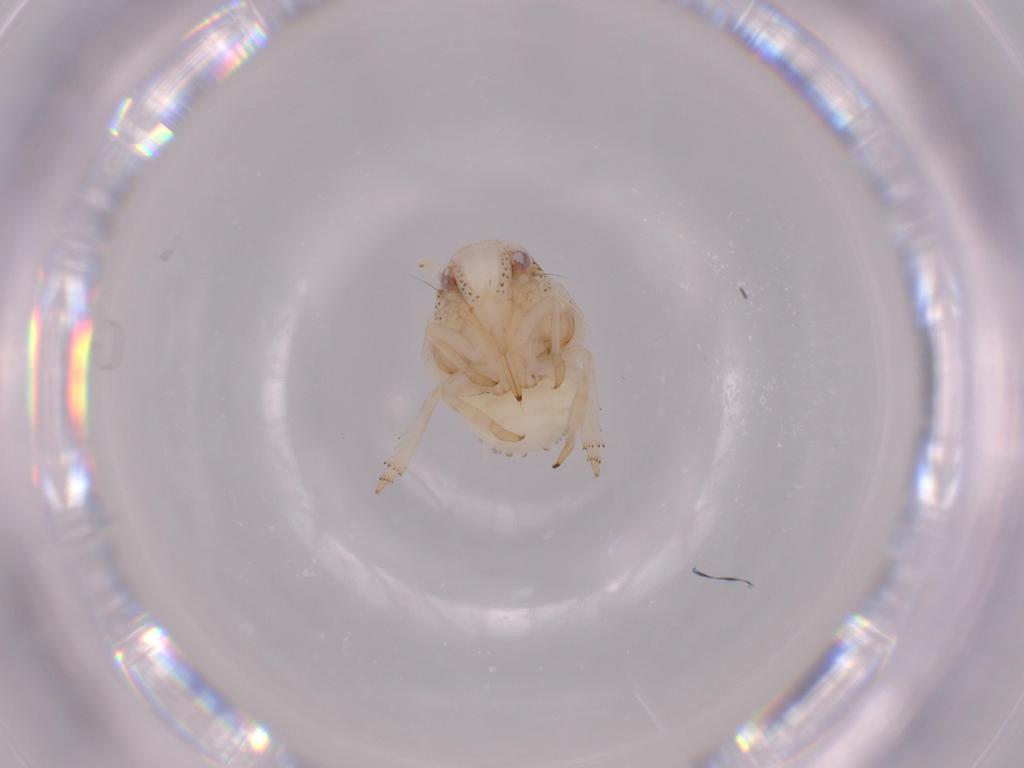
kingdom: Animalia
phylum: Arthropoda
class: Insecta
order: Hemiptera
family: Acanaloniidae
